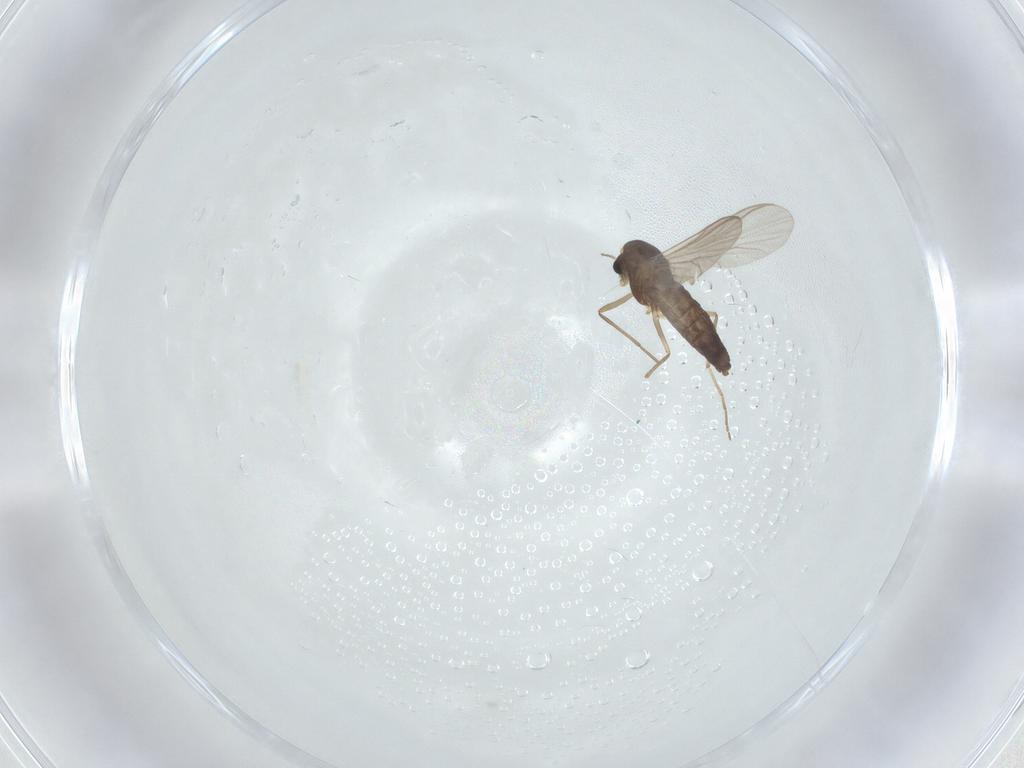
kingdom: Animalia
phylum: Arthropoda
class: Insecta
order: Diptera
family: Chironomidae
